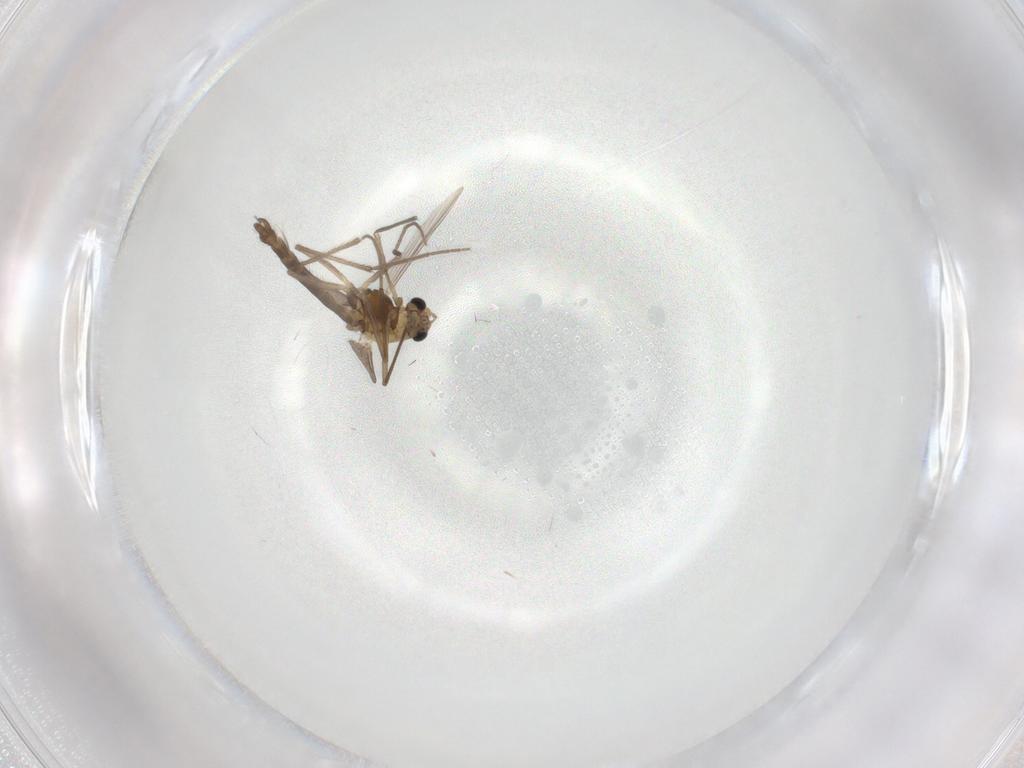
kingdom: Animalia
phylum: Arthropoda
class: Insecta
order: Diptera
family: Chironomidae
